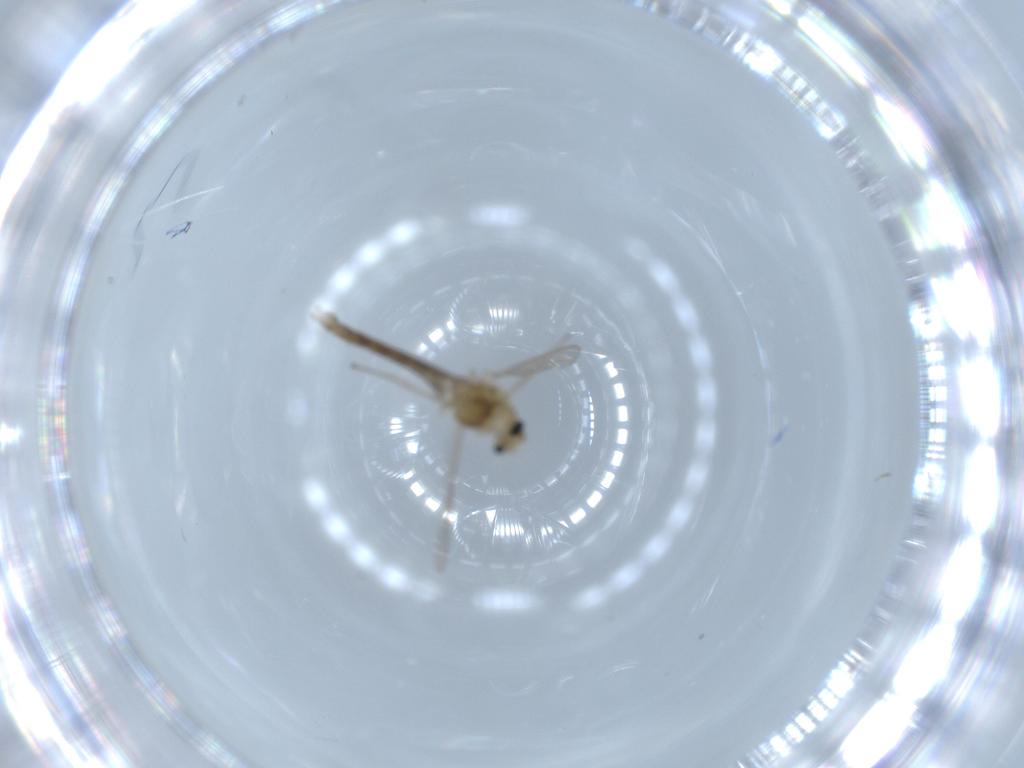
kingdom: Animalia
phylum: Arthropoda
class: Insecta
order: Diptera
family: Chironomidae
